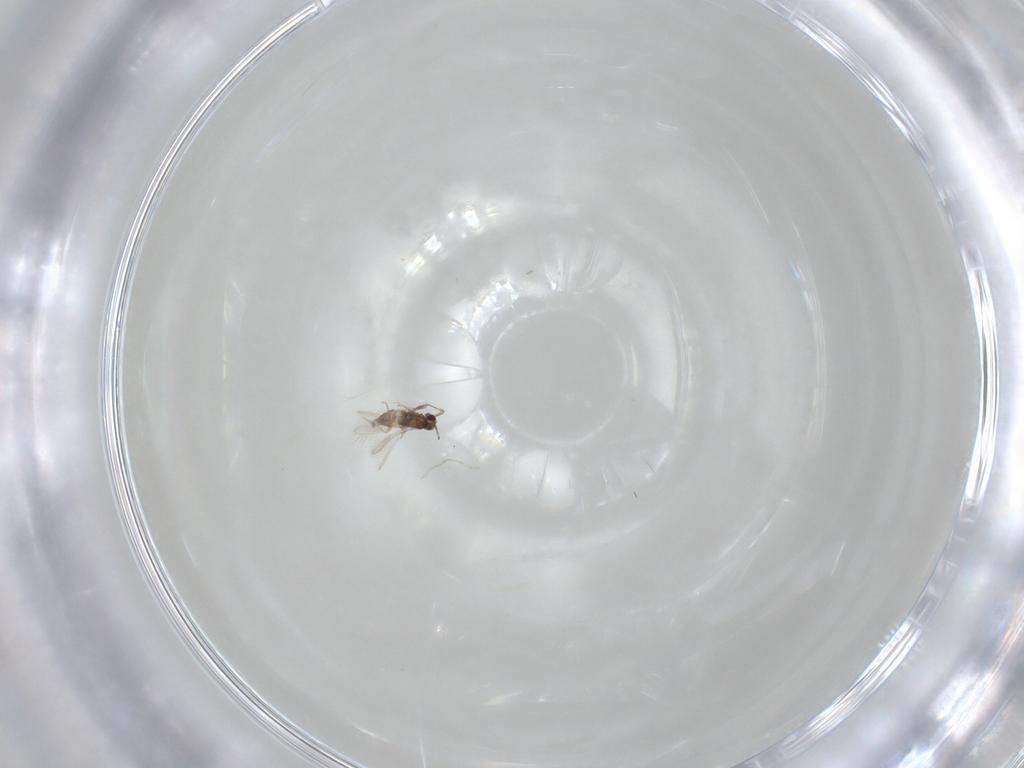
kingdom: Animalia
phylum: Arthropoda
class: Insecta
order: Hymenoptera
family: Mymaridae
